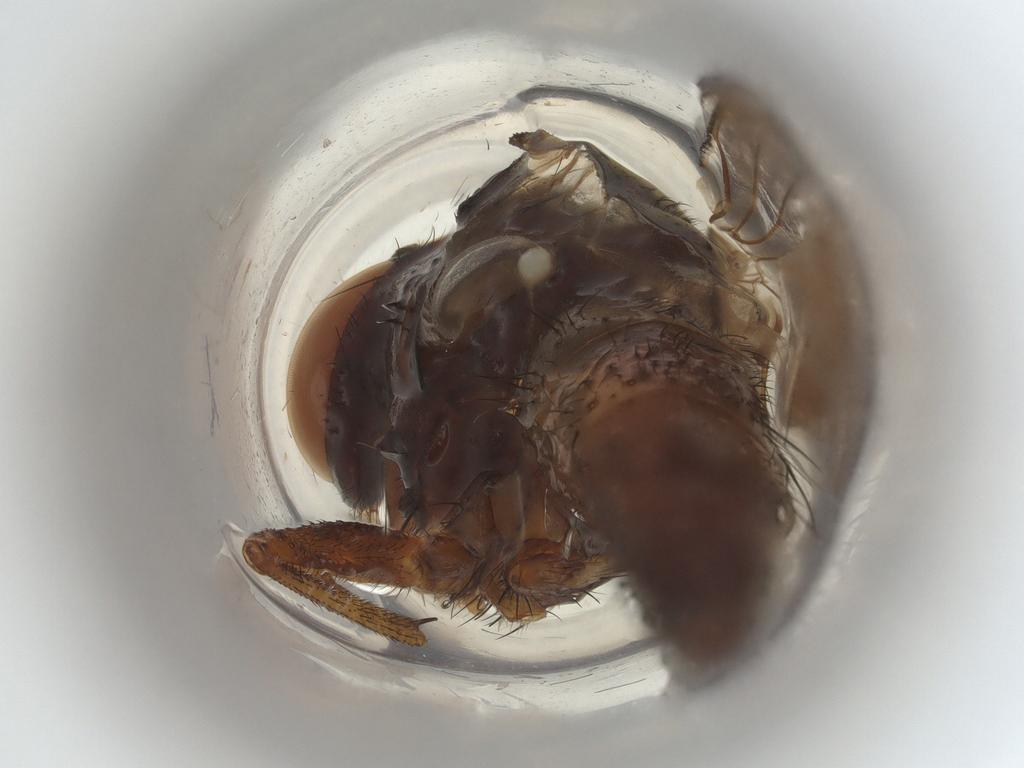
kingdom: Animalia
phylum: Arthropoda
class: Insecta
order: Diptera
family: Muscidae
